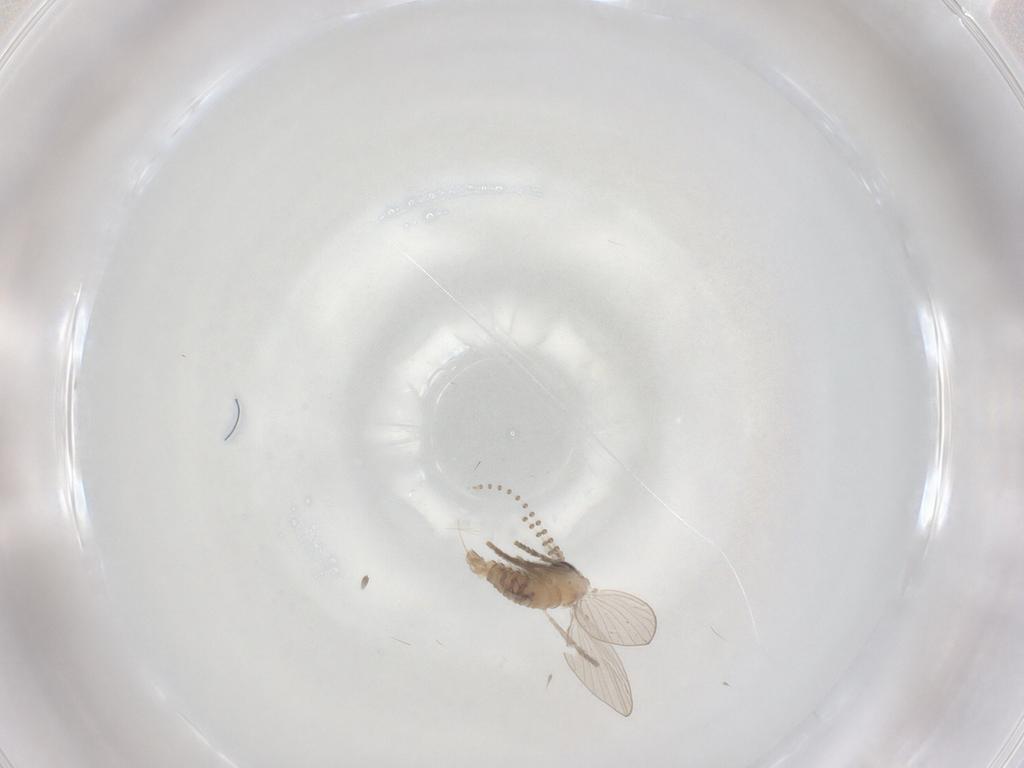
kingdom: Animalia
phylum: Arthropoda
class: Insecta
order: Diptera
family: Psychodidae
